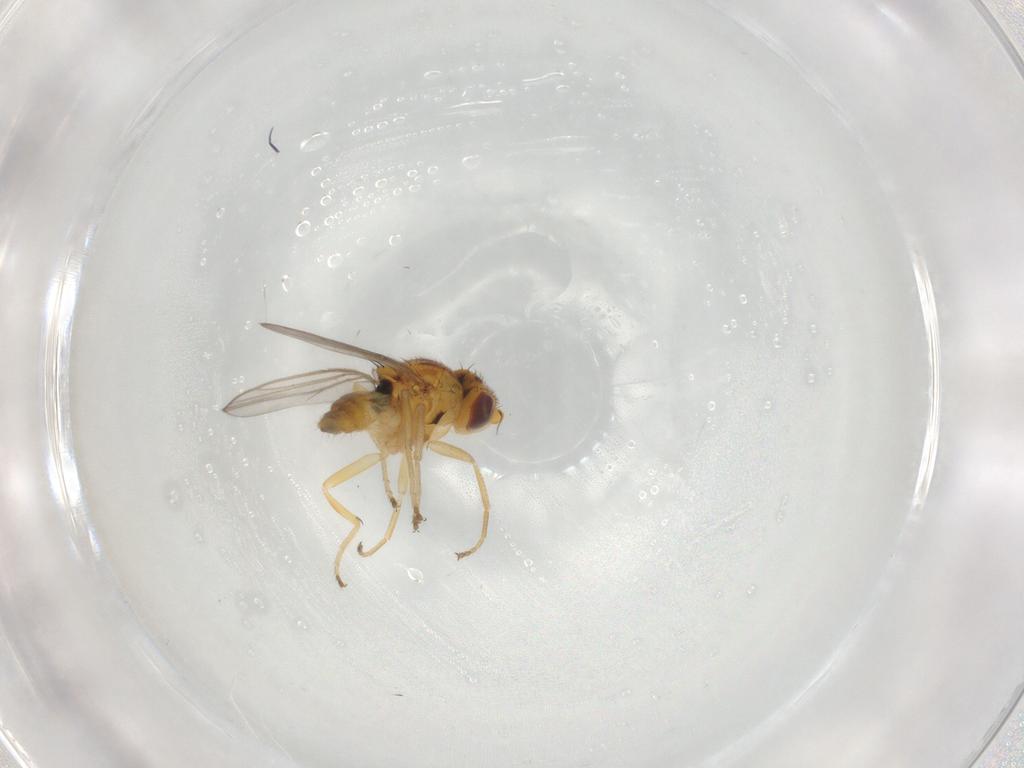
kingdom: Animalia
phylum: Arthropoda
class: Insecta
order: Diptera
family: Chloropidae
